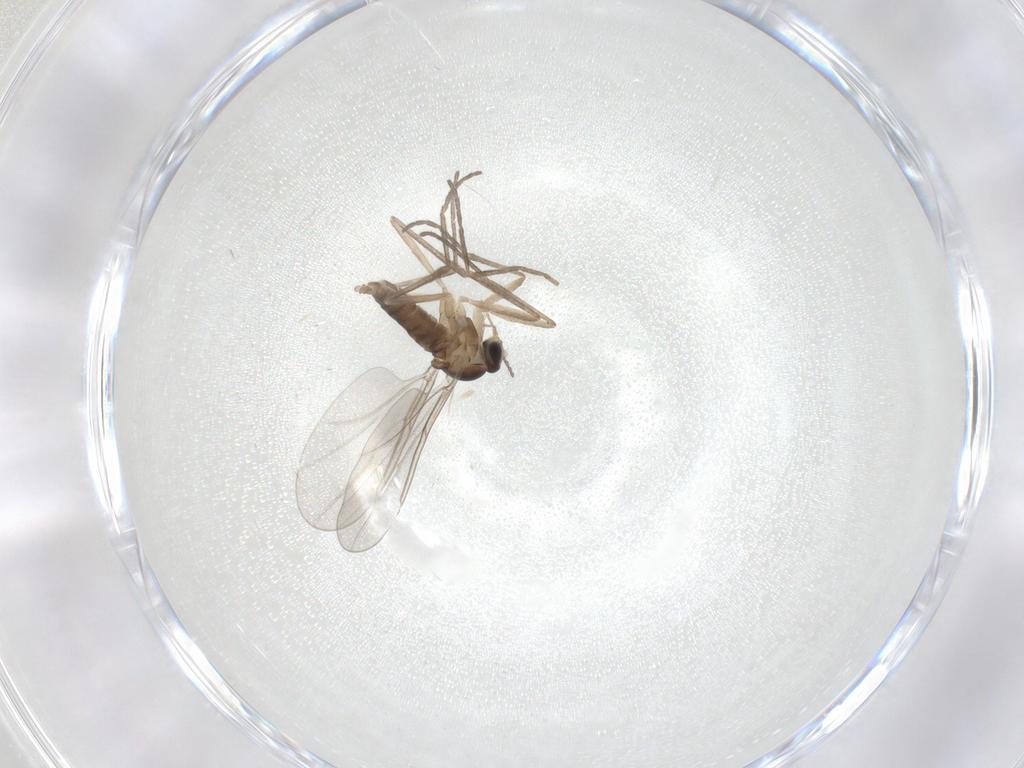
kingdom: Animalia
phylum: Arthropoda
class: Insecta
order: Diptera
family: Cecidomyiidae
